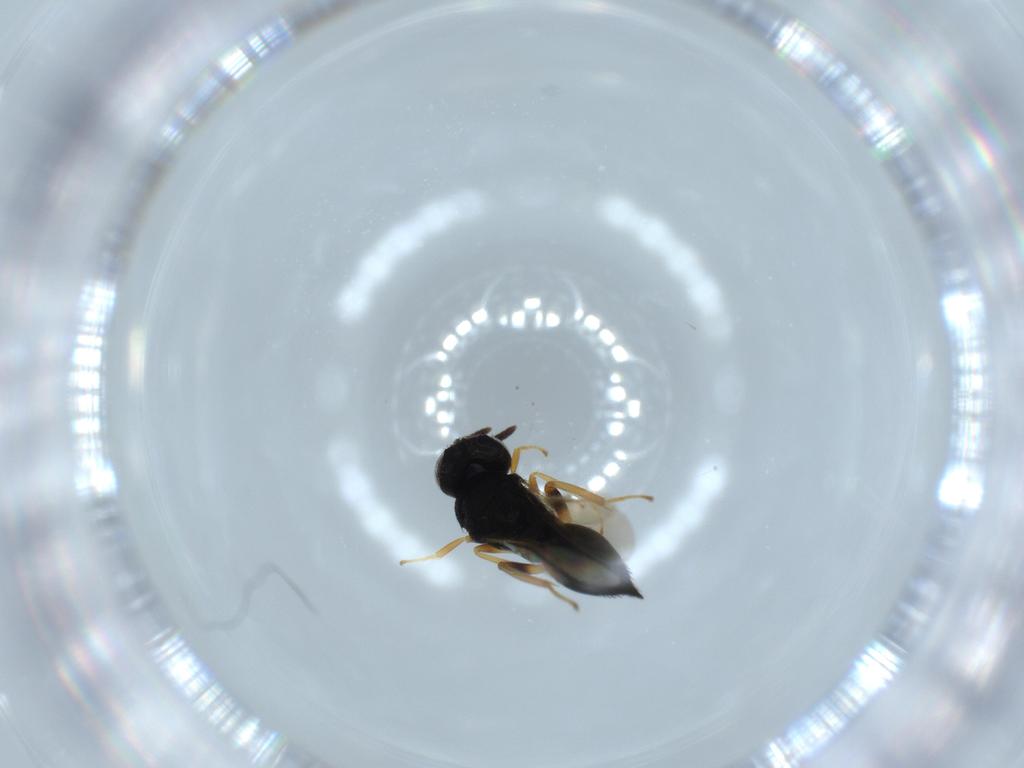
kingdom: Animalia
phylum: Arthropoda
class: Insecta
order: Hymenoptera
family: Pteromalidae
